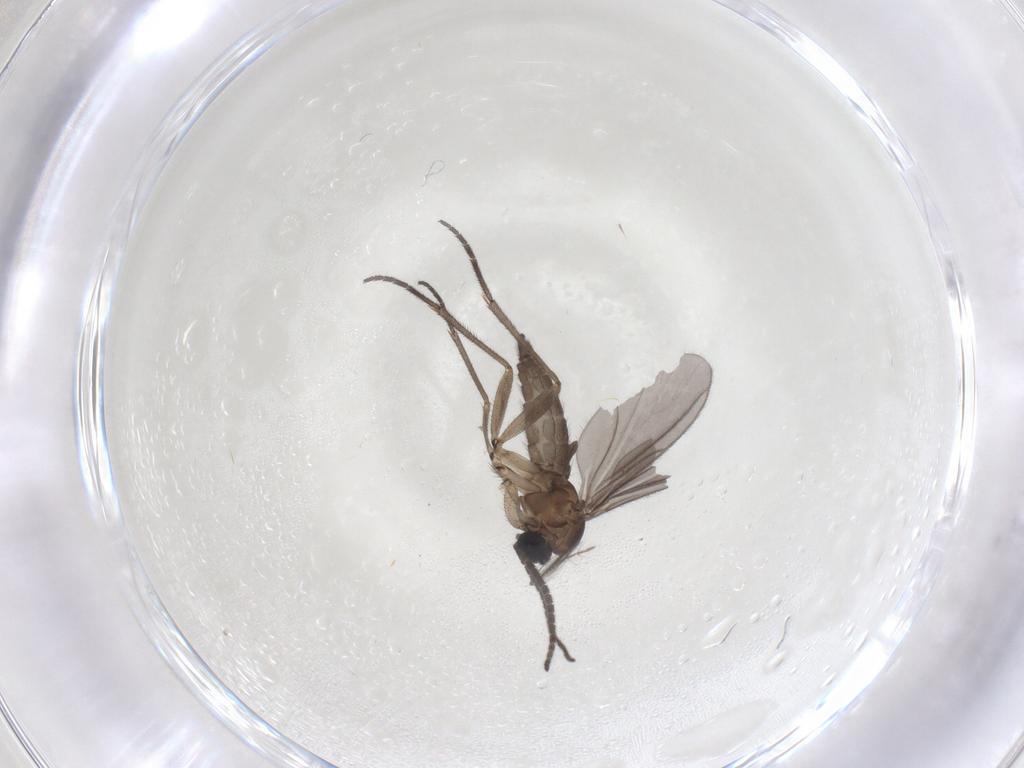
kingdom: Animalia
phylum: Arthropoda
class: Insecta
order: Diptera
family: Sciaridae
